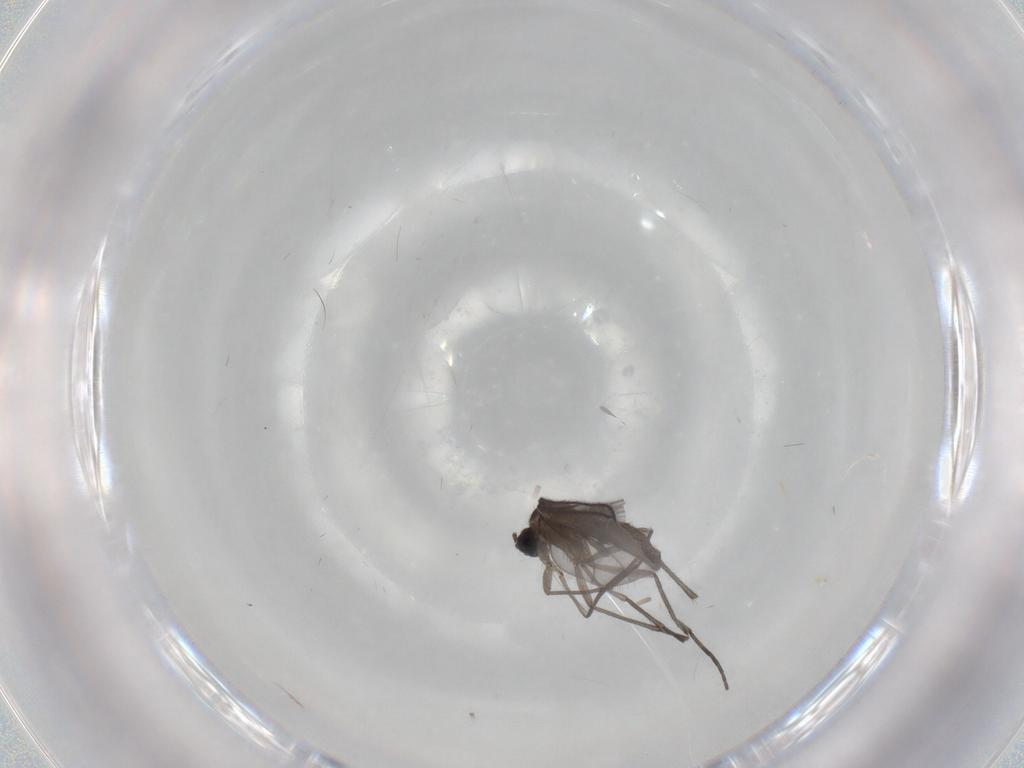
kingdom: Animalia
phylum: Arthropoda
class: Insecta
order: Diptera
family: Sciaridae
